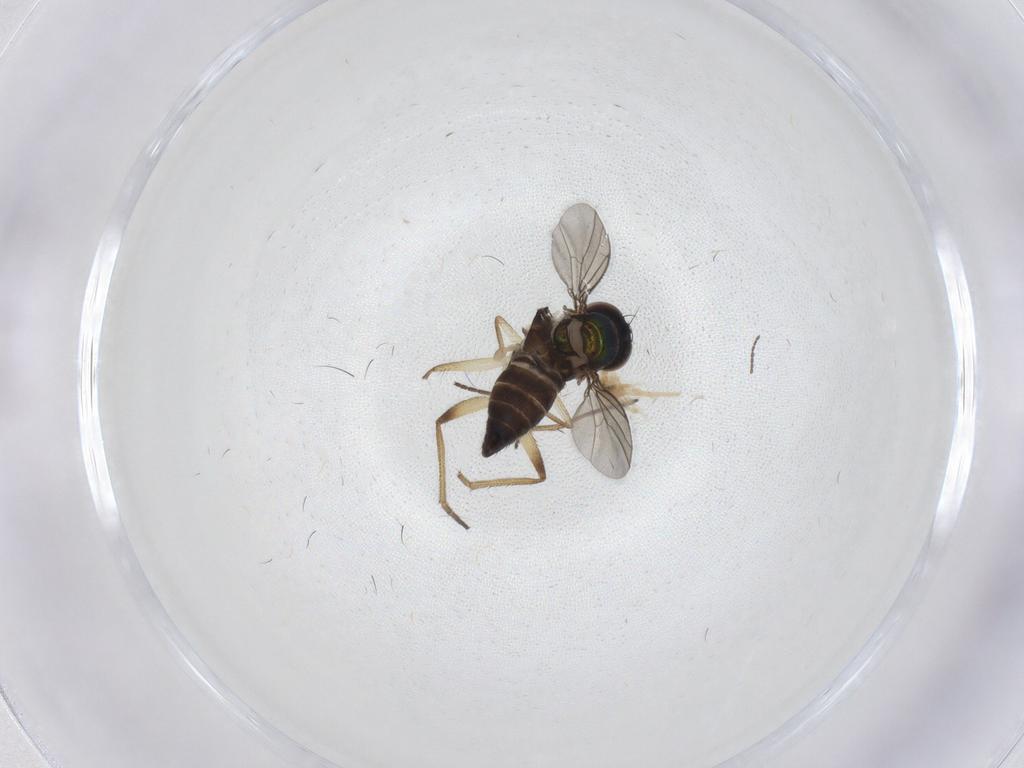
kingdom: Animalia
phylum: Arthropoda
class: Insecta
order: Diptera
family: Dolichopodidae
